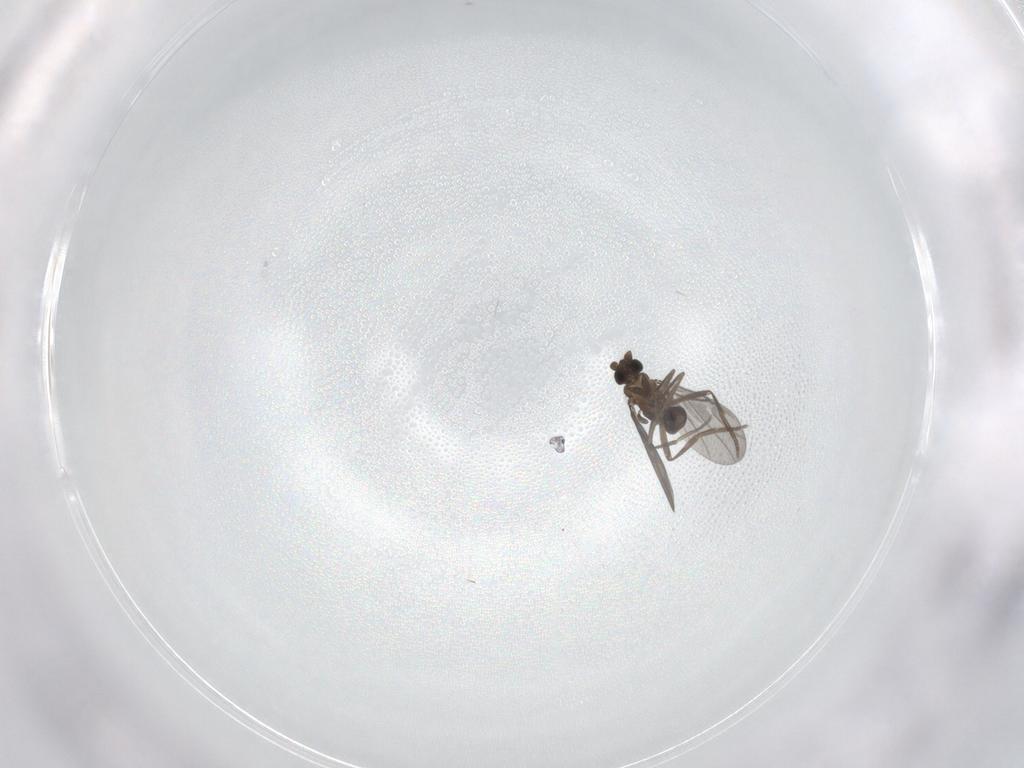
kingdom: Animalia
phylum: Arthropoda
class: Insecta
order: Diptera
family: Phoridae
